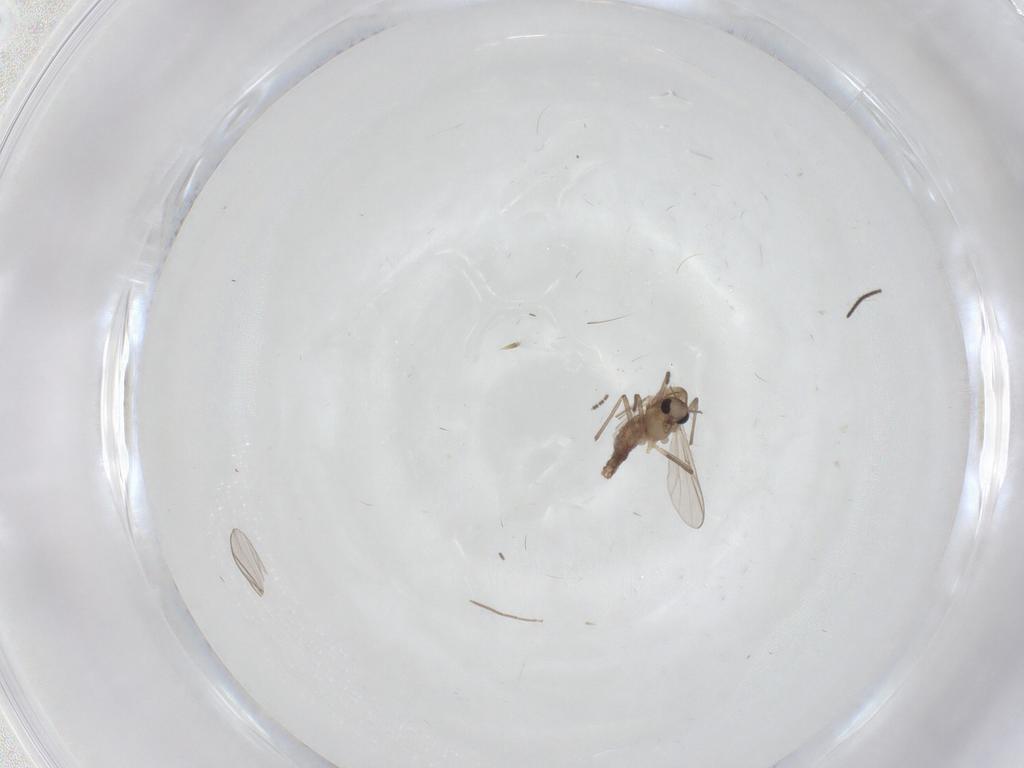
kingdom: Animalia
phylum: Arthropoda
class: Insecta
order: Diptera
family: Chironomidae
